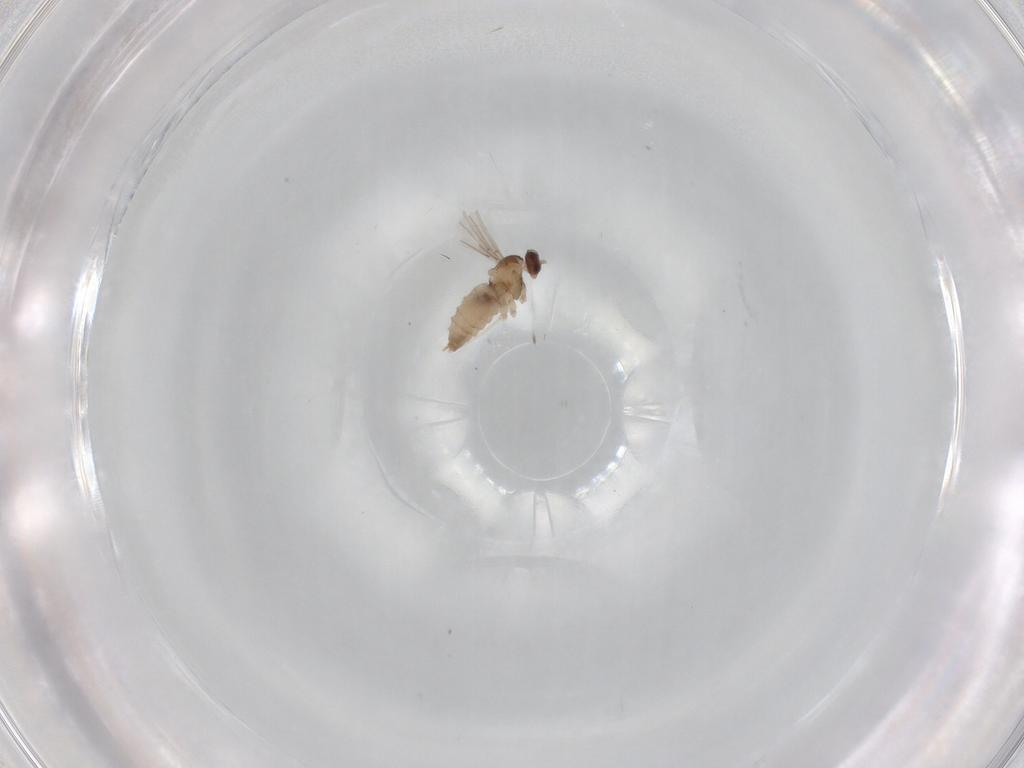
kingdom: Animalia
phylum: Arthropoda
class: Insecta
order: Diptera
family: Cecidomyiidae
